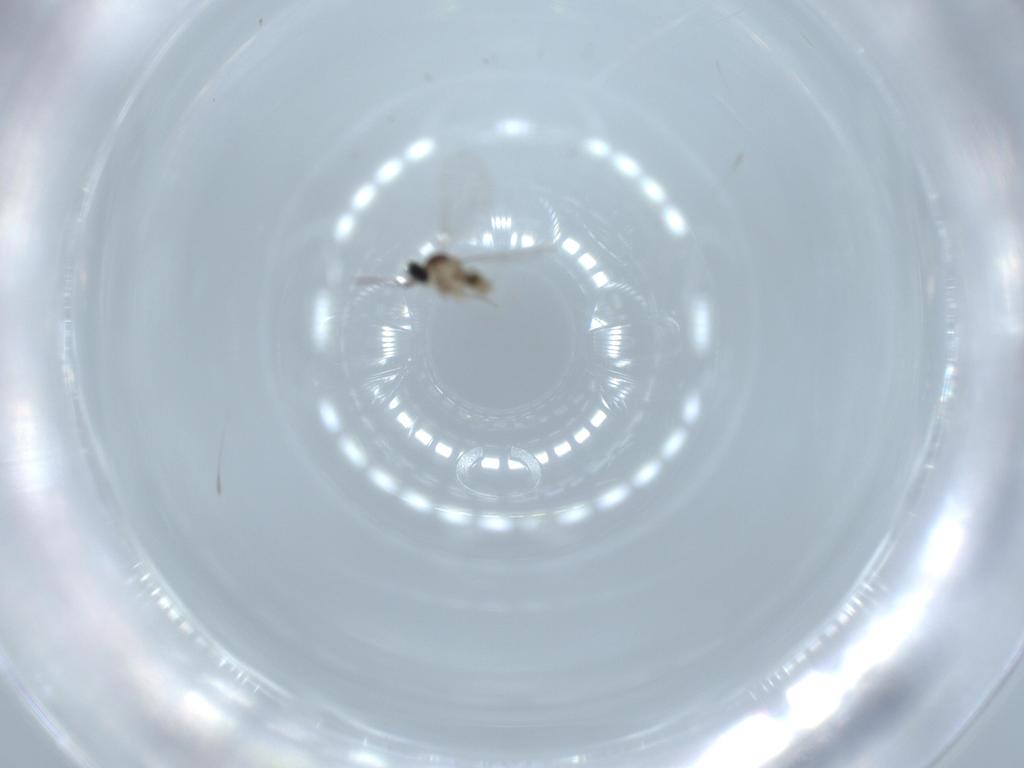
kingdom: Animalia
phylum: Arthropoda
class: Insecta
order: Diptera
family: Cecidomyiidae
